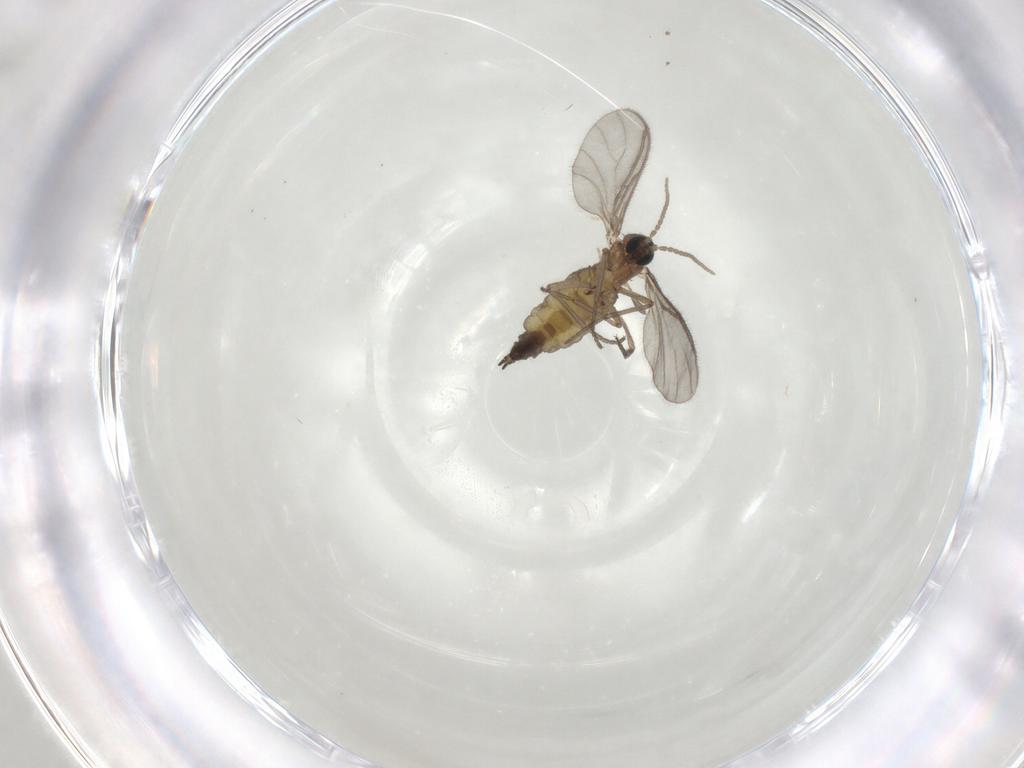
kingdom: Animalia
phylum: Arthropoda
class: Insecta
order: Diptera
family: Sciaridae
